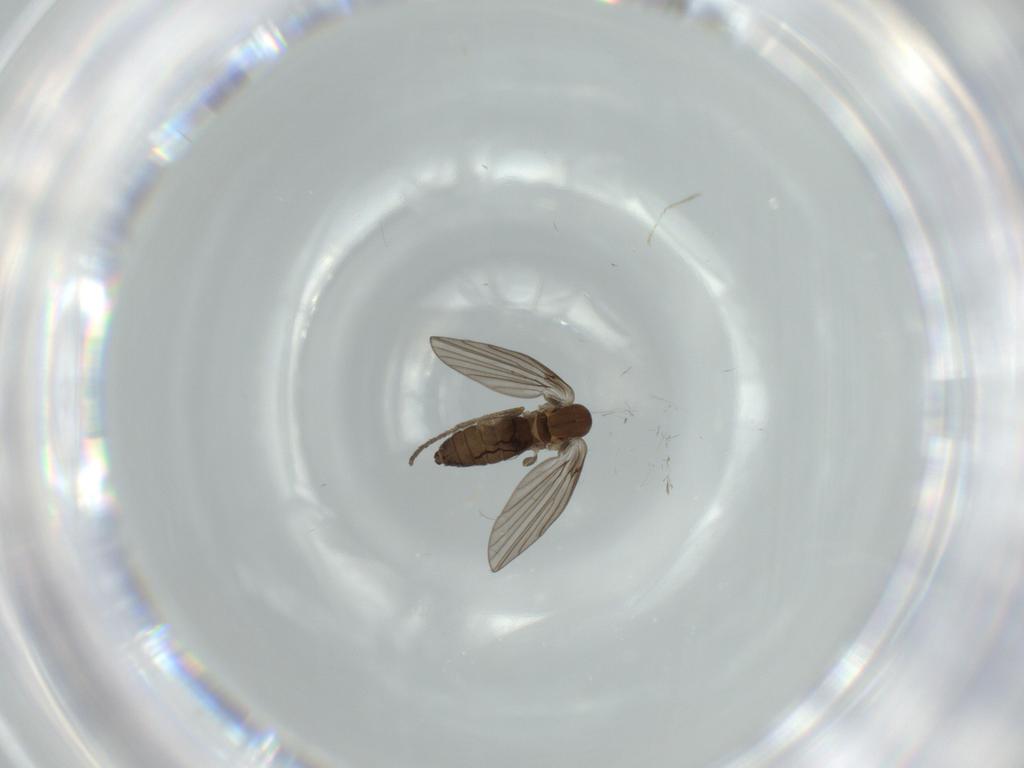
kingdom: Animalia
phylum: Arthropoda
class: Insecta
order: Diptera
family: Psychodidae
